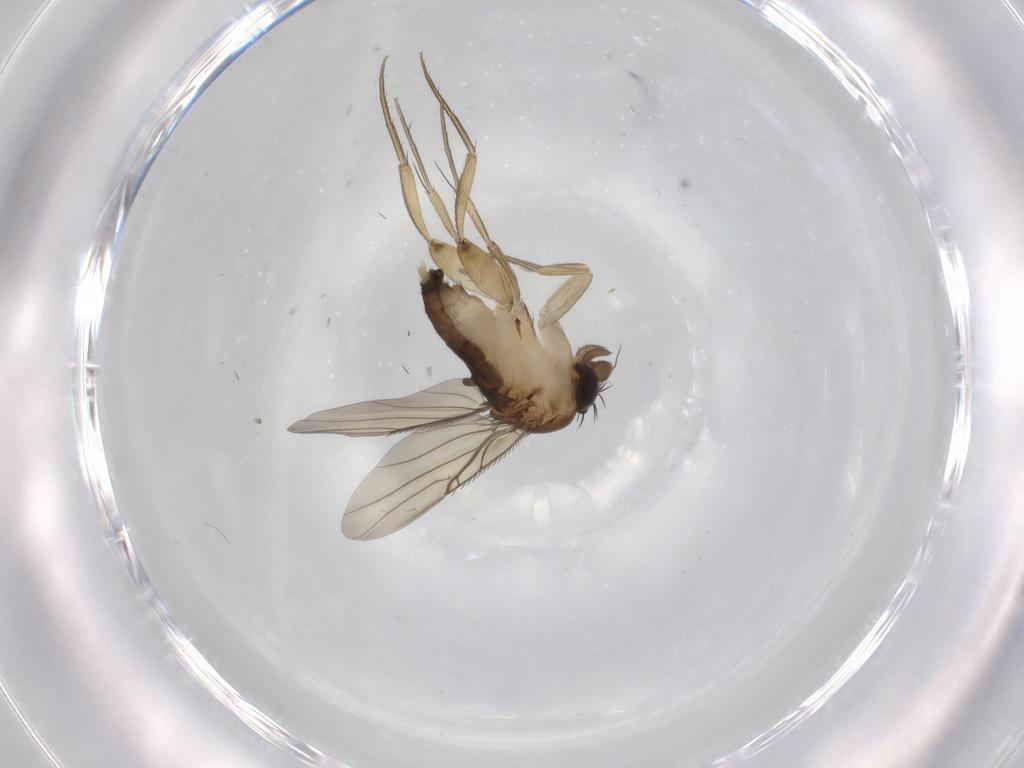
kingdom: Animalia
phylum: Arthropoda
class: Insecta
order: Diptera
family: Phoridae
